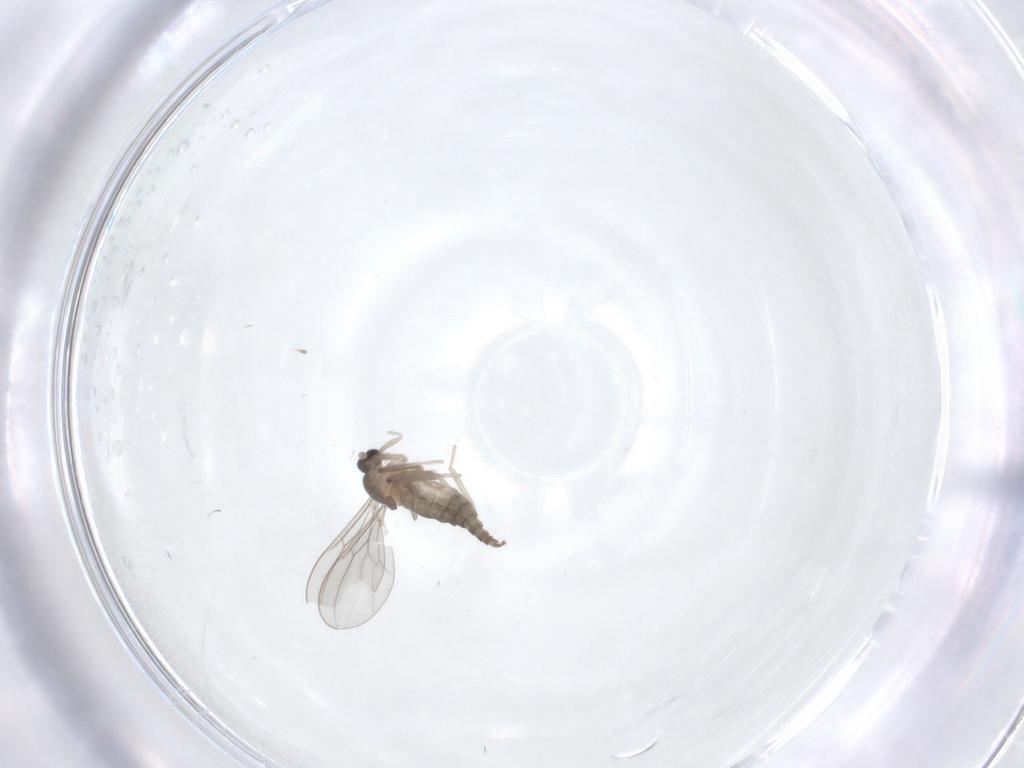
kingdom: Animalia
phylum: Arthropoda
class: Insecta
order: Diptera
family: Cecidomyiidae
